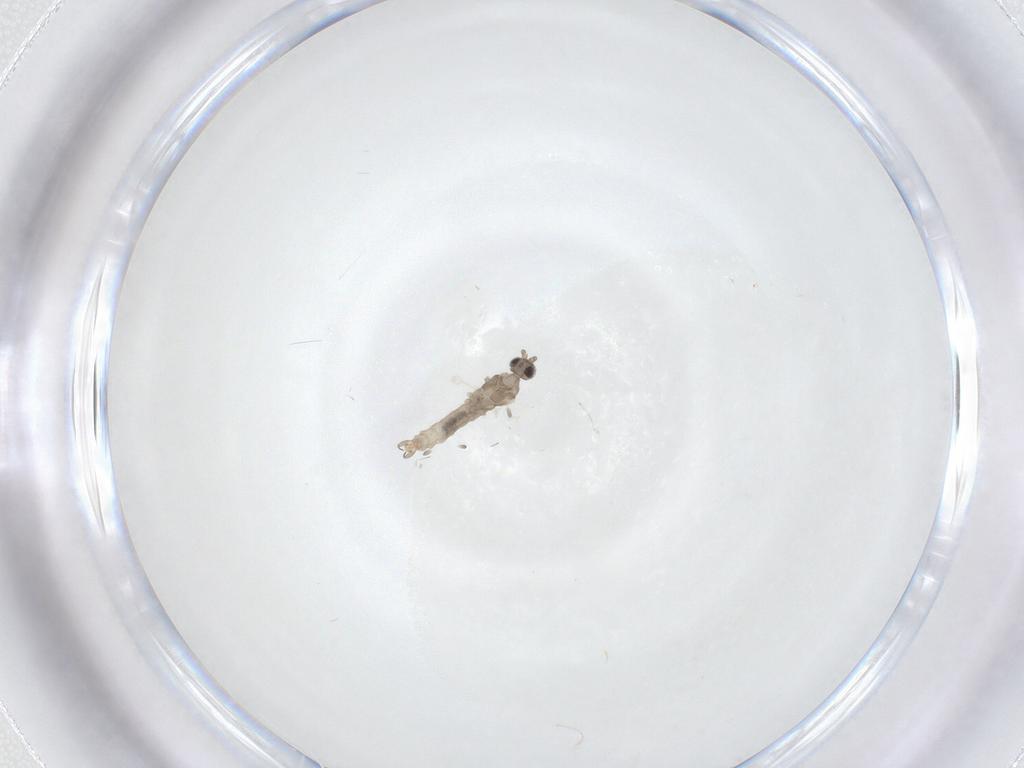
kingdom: Animalia
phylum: Arthropoda
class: Insecta
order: Diptera
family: Cecidomyiidae
